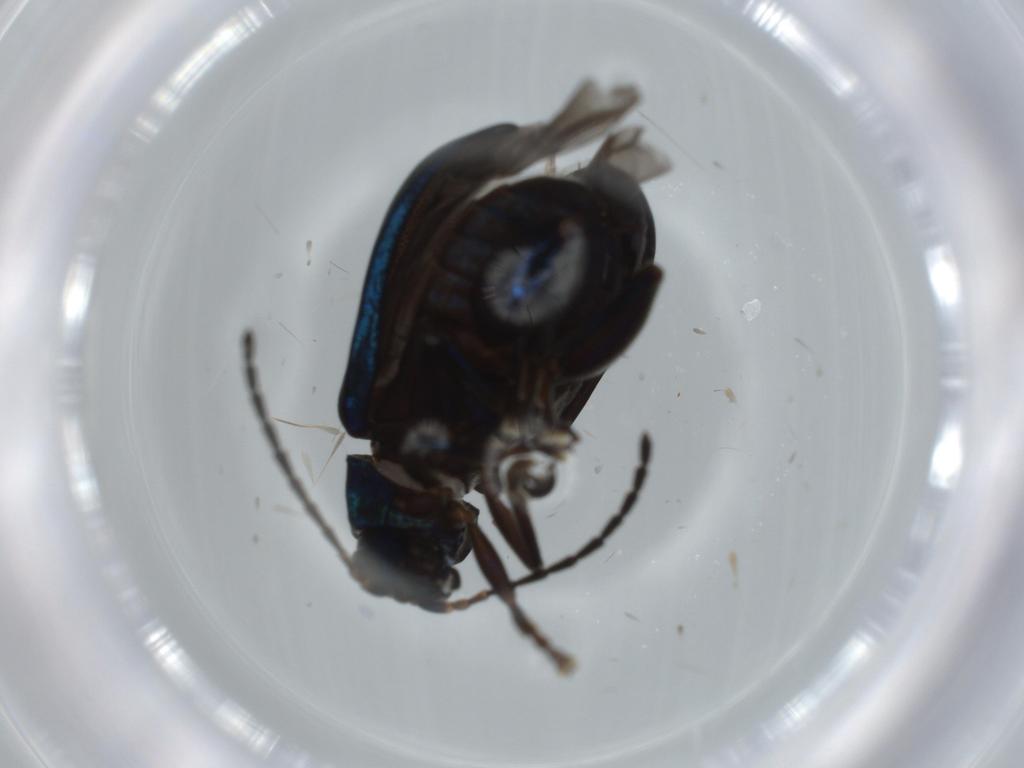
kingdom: Animalia
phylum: Arthropoda
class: Insecta
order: Coleoptera
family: Chrysomelidae
